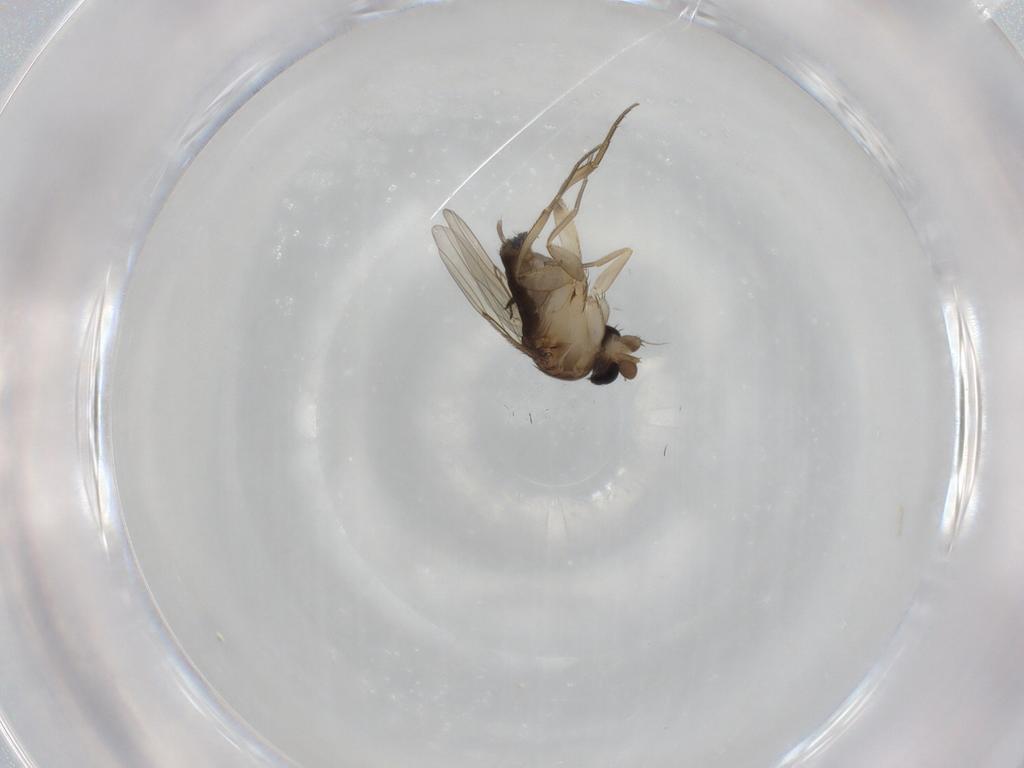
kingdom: Animalia
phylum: Arthropoda
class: Insecta
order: Diptera
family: Phoridae
